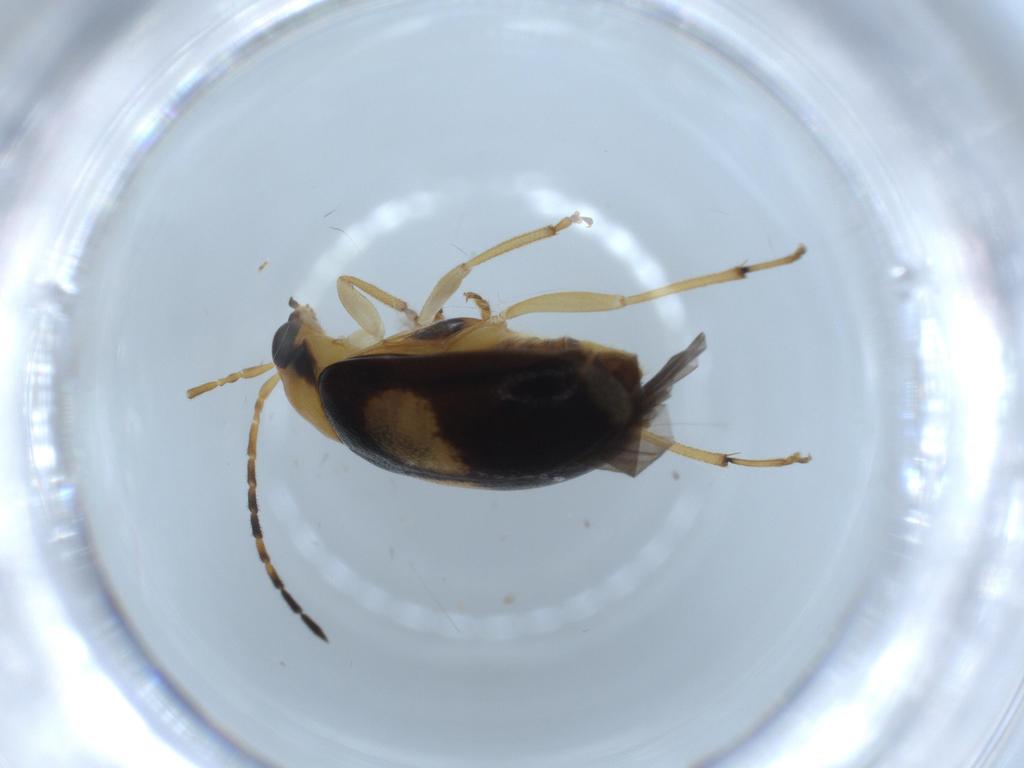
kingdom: Animalia
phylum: Arthropoda
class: Insecta
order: Coleoptera
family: Chrysomelidae
